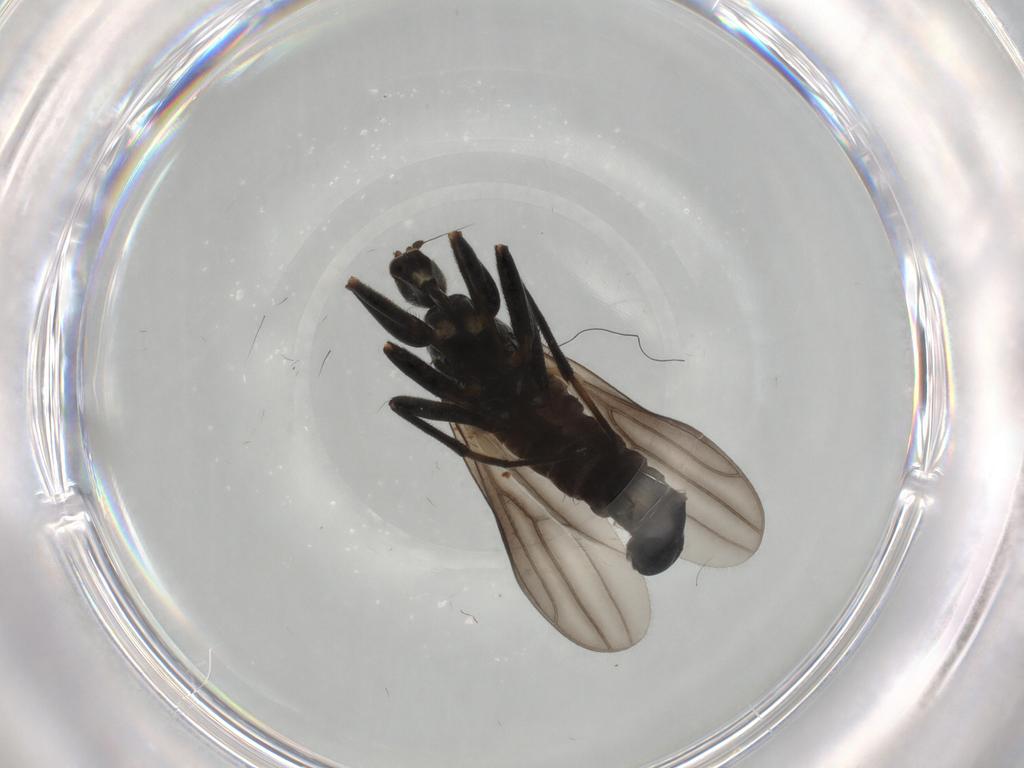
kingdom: Animalia
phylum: Arthropoda
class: Insecta
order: Diptera
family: Hybotidae
